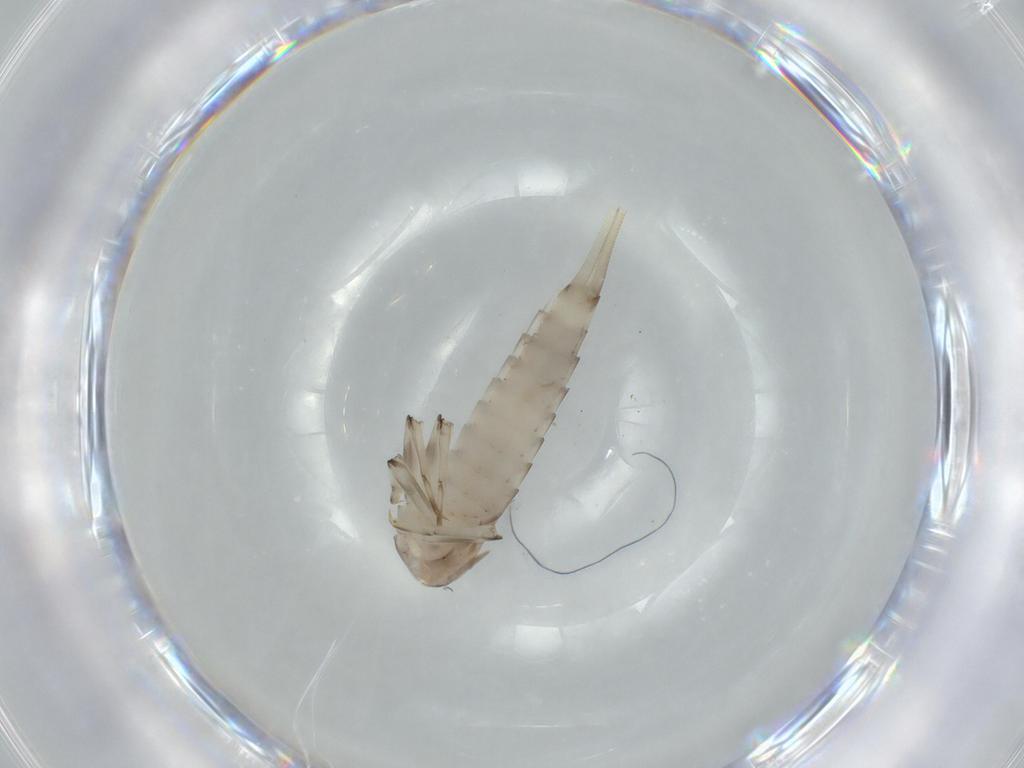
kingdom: Animalia
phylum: Arthropoda
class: Insecta
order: Ephemeroptera
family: Baetidae
